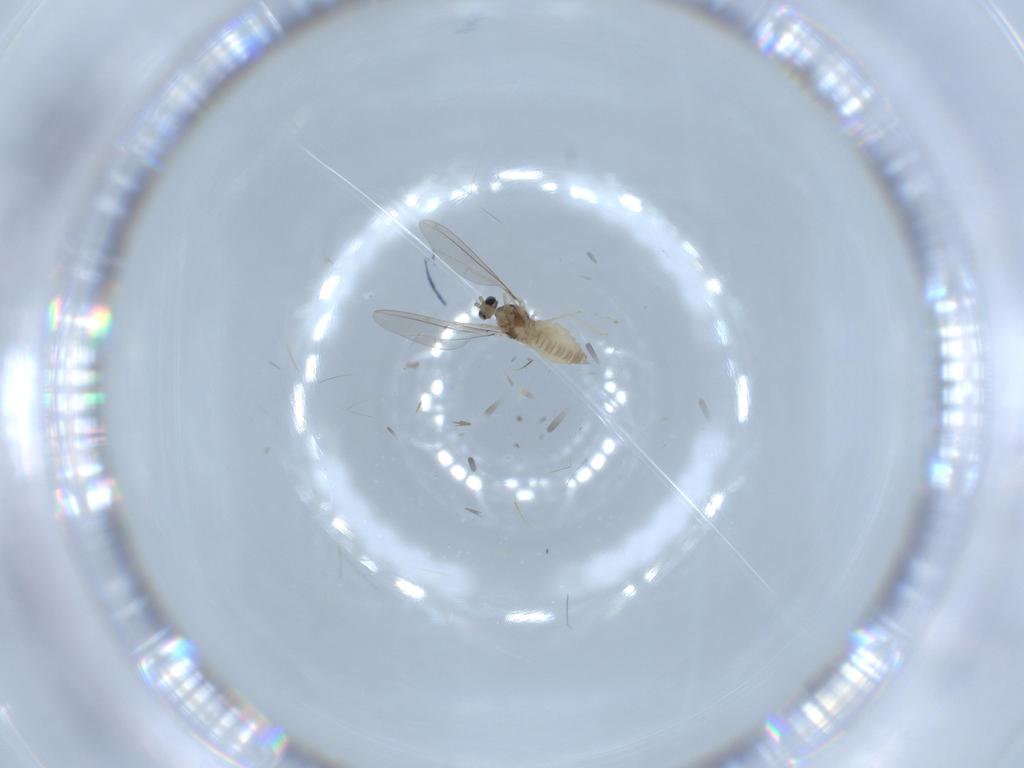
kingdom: Animalia
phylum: Arthropoda
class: Insecta
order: Diptera
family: Cecidomyiidae
